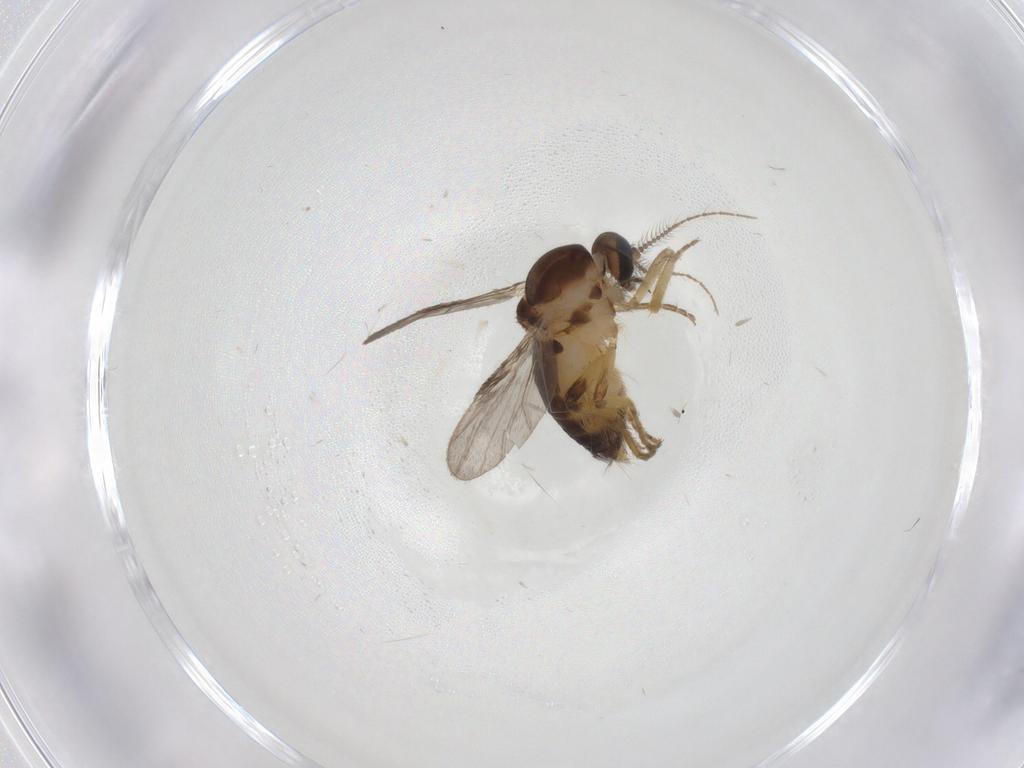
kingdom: Animalia
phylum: Arthropoda
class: Insecta
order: Diptera
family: Ceratopogonidae
